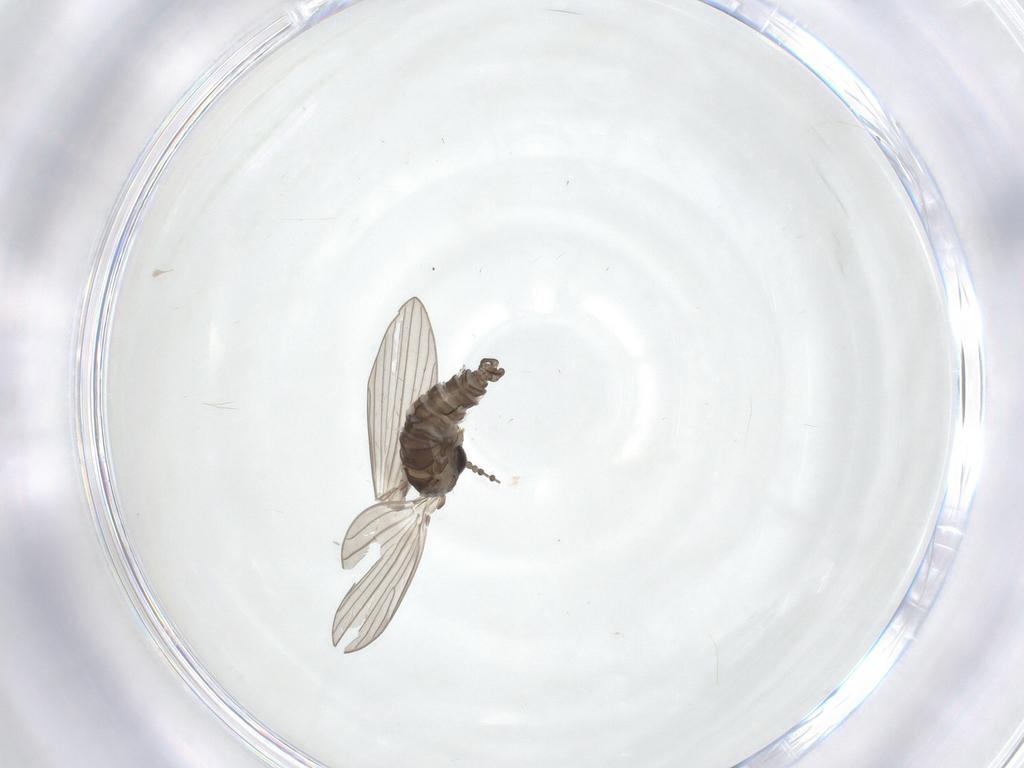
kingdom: Animalia
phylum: Arthropoda
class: Insecta
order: Diptera
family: Psychodidae
